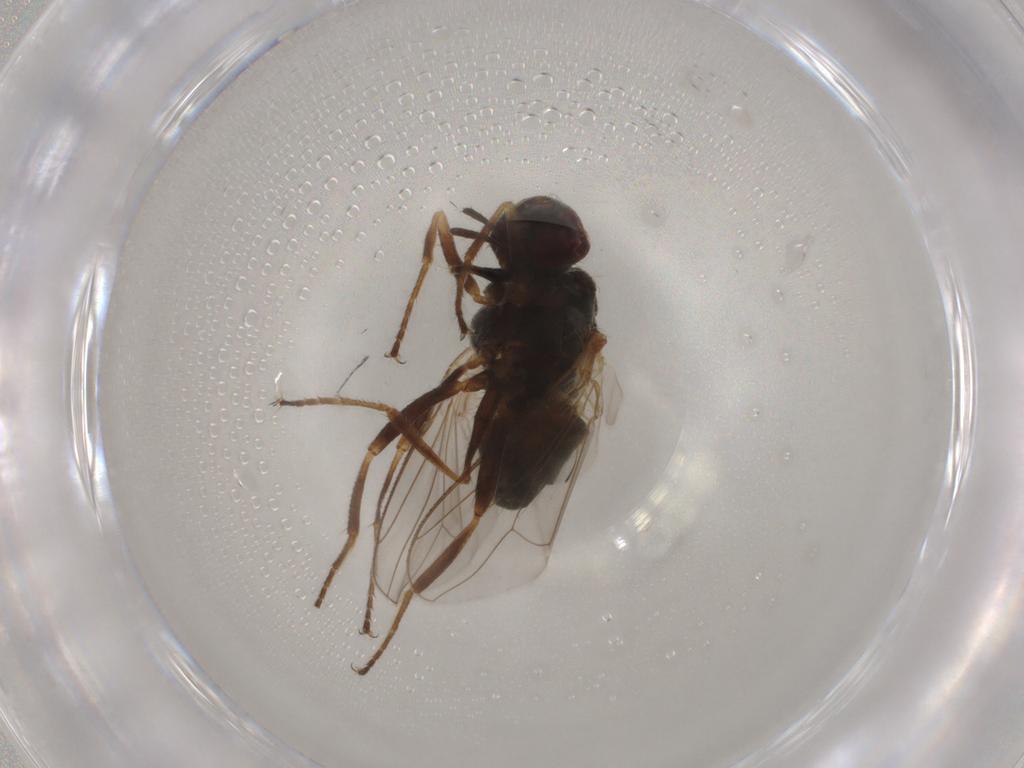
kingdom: Animalia
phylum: Arthropoda
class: Insecta
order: Diptera
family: Muscidae
